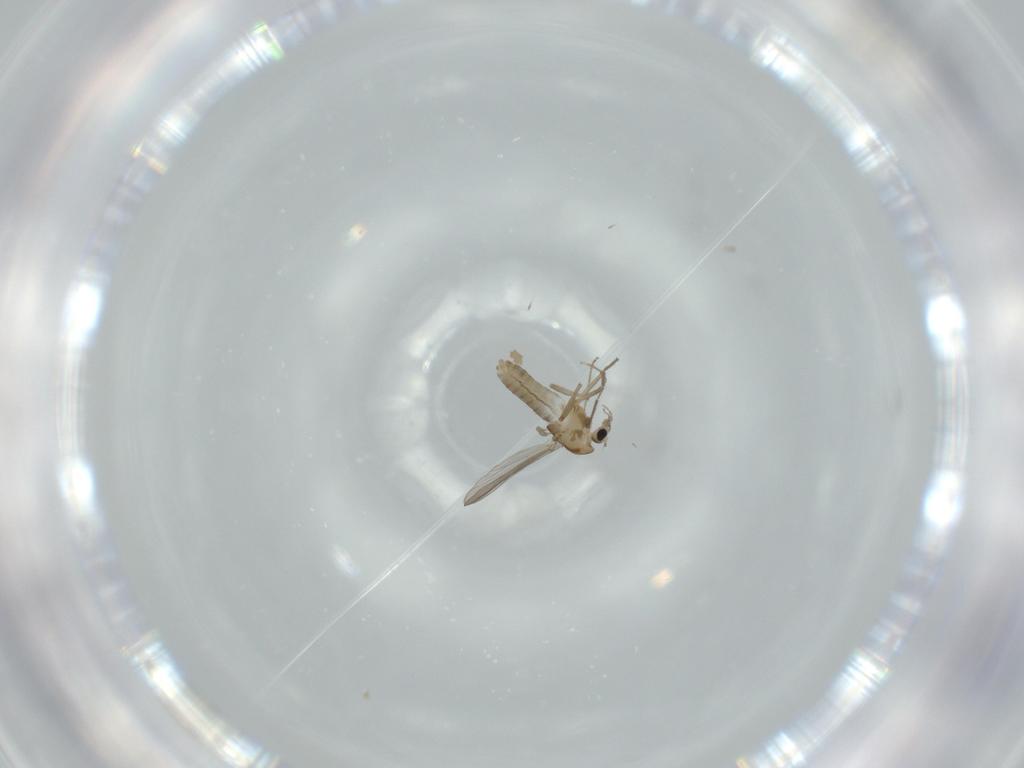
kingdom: Animalia
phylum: Arthropoda
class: Insecta
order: Diptera
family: Chironomidae
